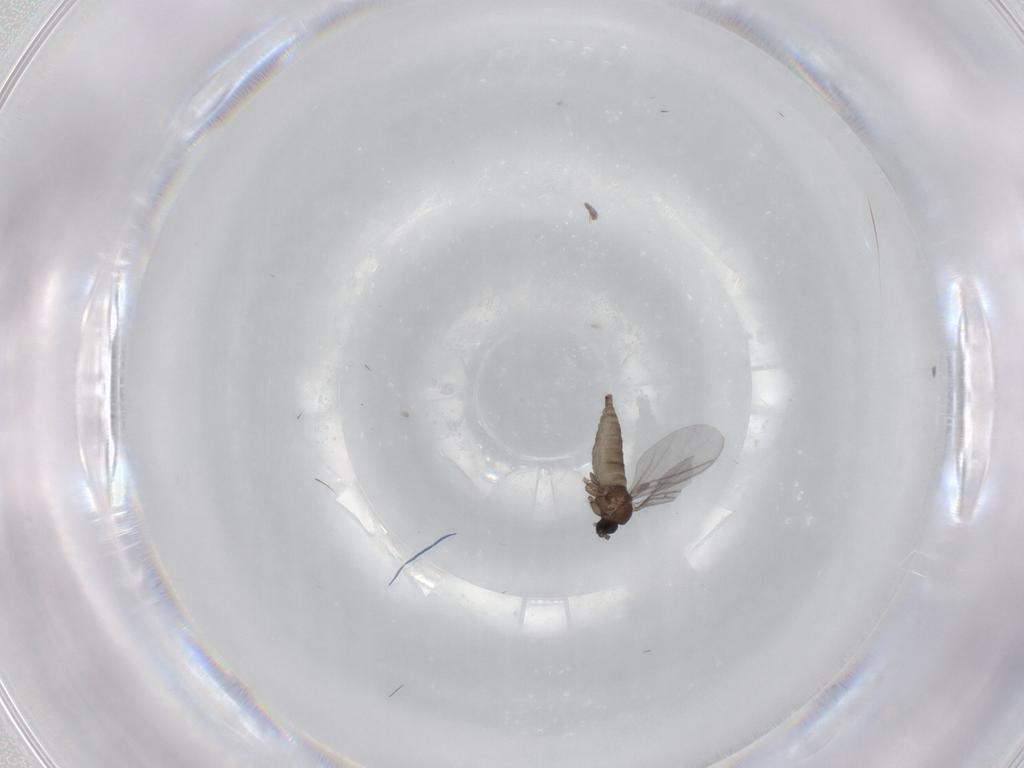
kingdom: Animalia
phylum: Arthropoda
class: Insecta
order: Diptera
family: Sciaridae
